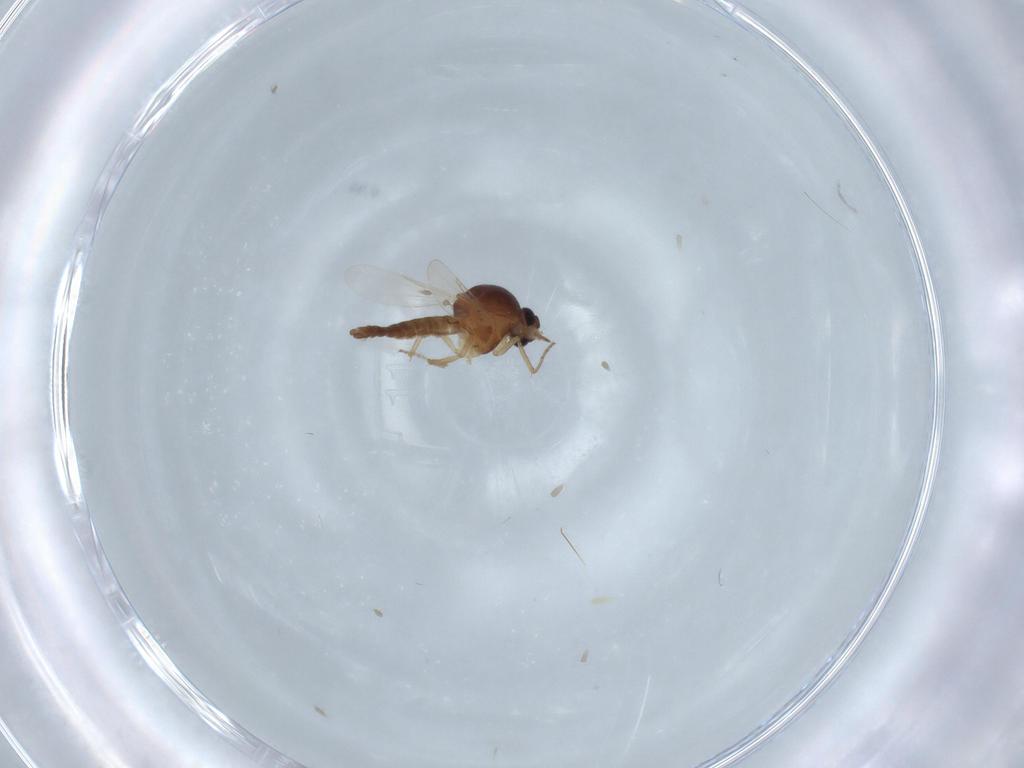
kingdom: Animalia
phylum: Arthropoda
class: Insecta
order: Diptera
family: Ceratopogonidae
